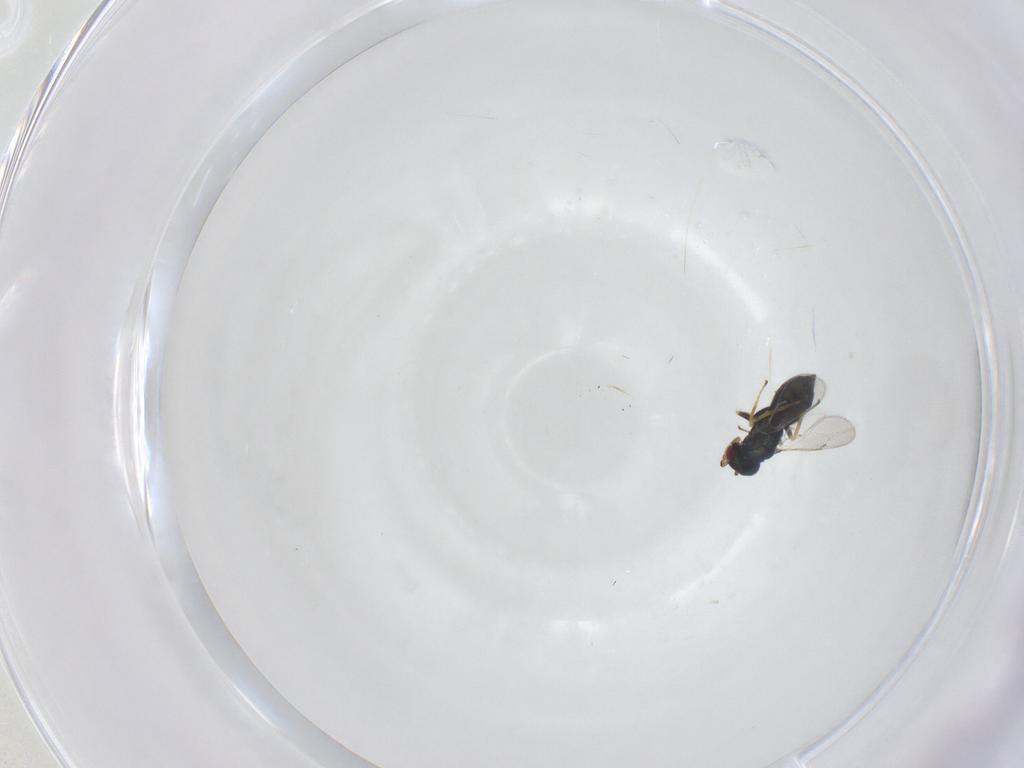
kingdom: Animalia
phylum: Arthropoda
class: Insecta
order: Hymenoptera
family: Eulophidae
